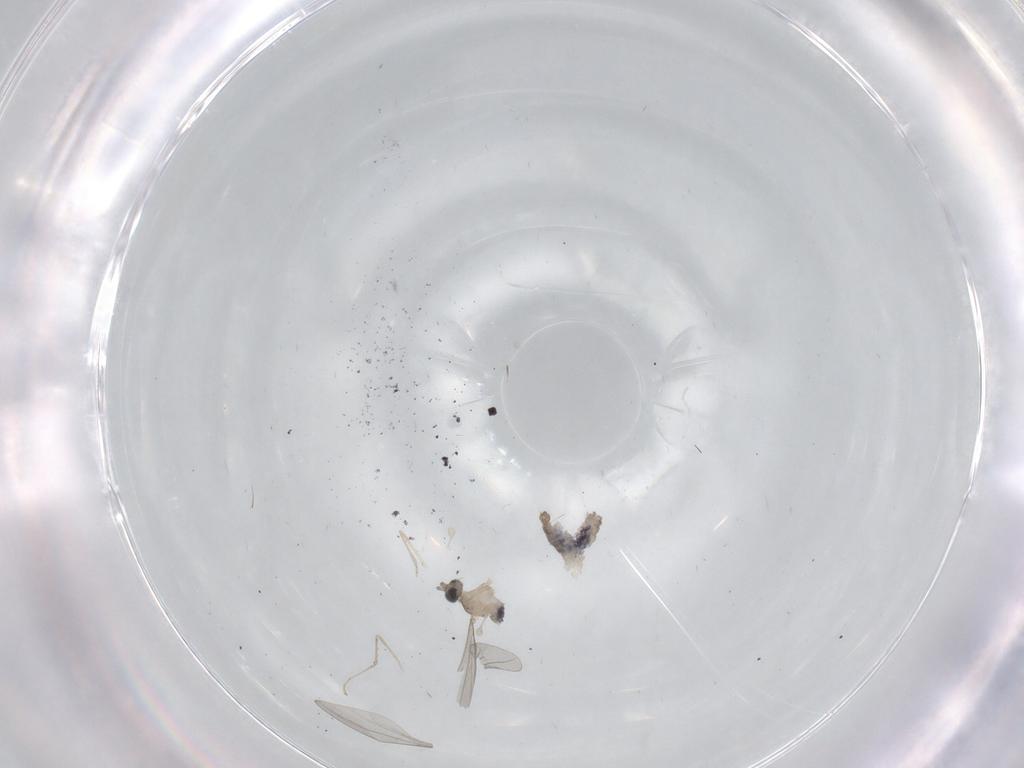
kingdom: Animalia
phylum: Arthropoda
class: Insecta
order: Diptera
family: Cecidomyiidae
